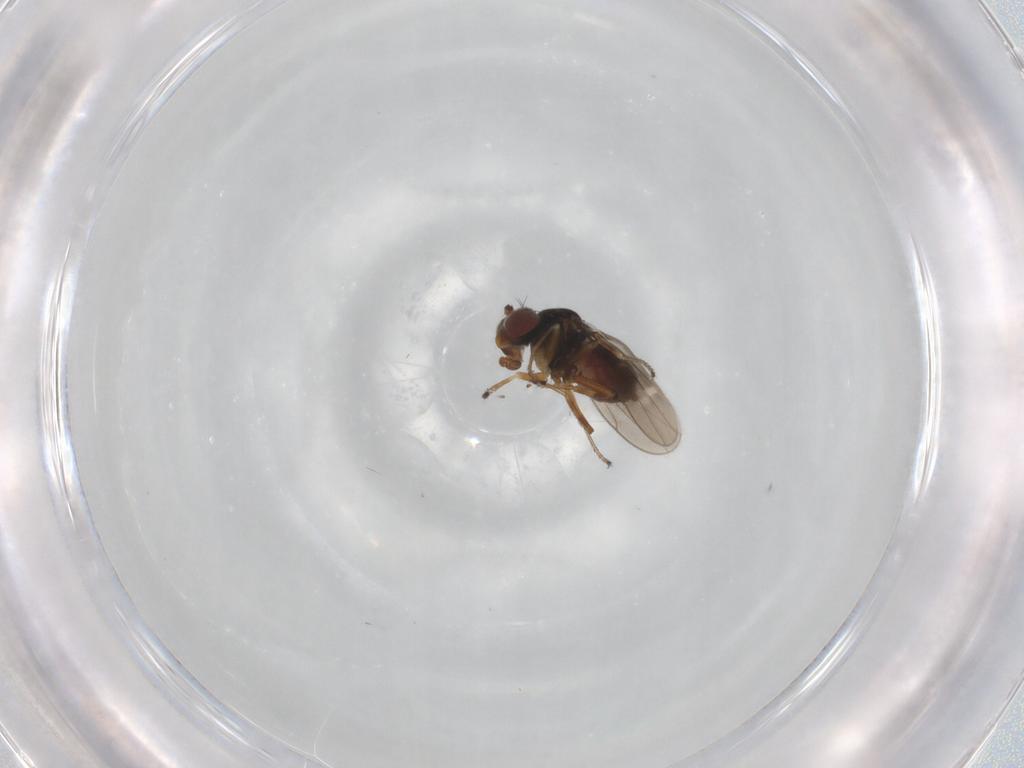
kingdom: Animalia
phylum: Arthropoda
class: Insecta
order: Diptera
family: Ephydridae
